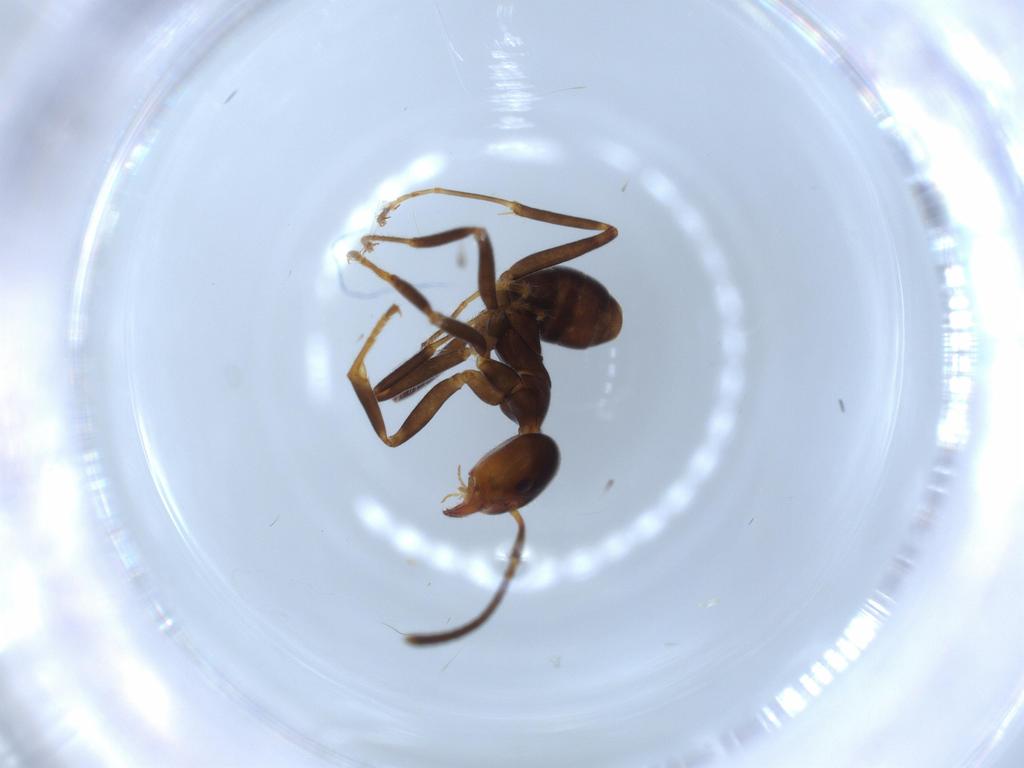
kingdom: Animalia
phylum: Arthropoda
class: Insecta
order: Hymenoptera
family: Formicidae
